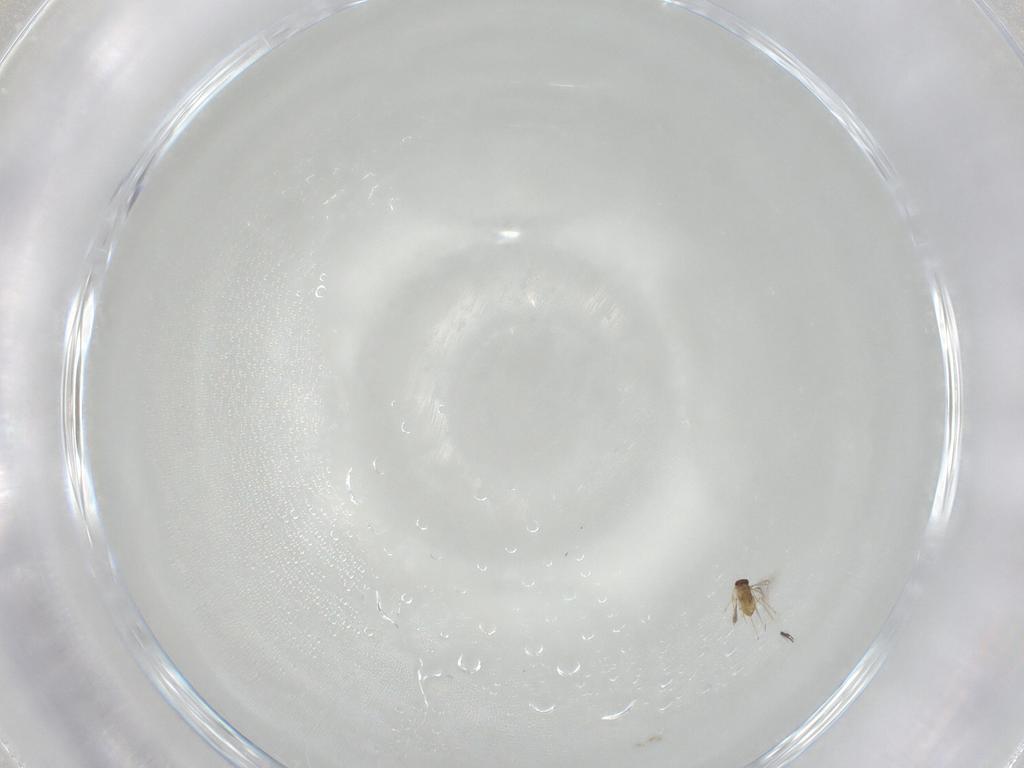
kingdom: Animalia
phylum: Arthropoda
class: Insecta
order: Hymenoptera
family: Mymaridae
